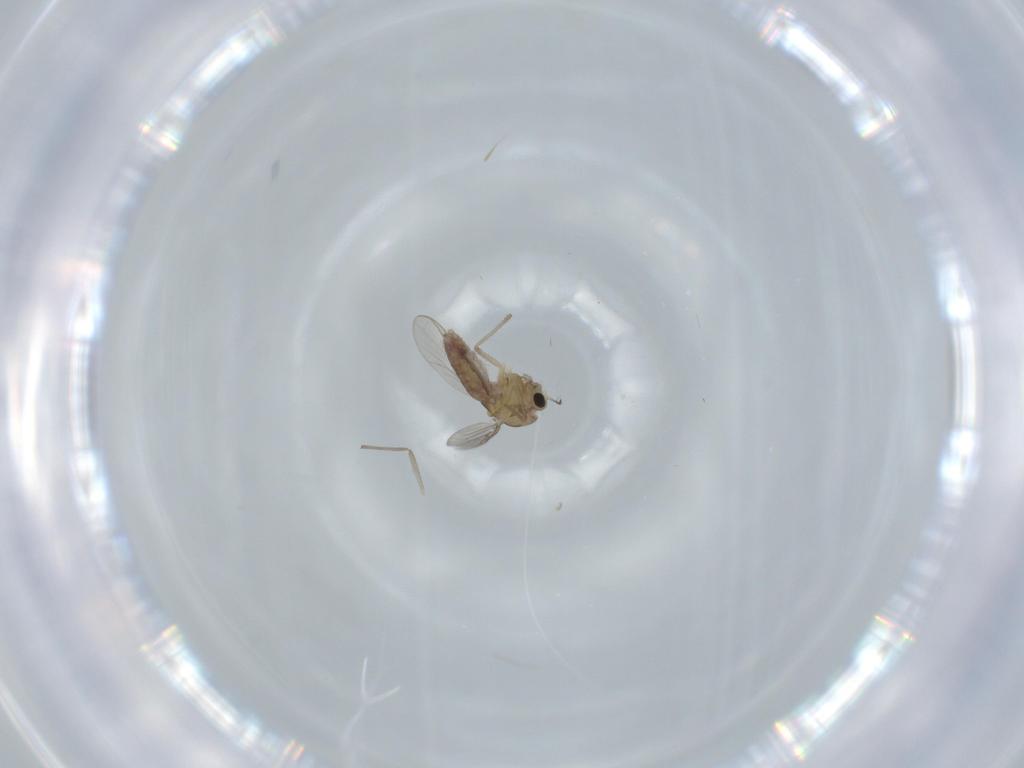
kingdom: Animalia
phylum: Arthropoda
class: Insecta
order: Diptera
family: Chironomidae
